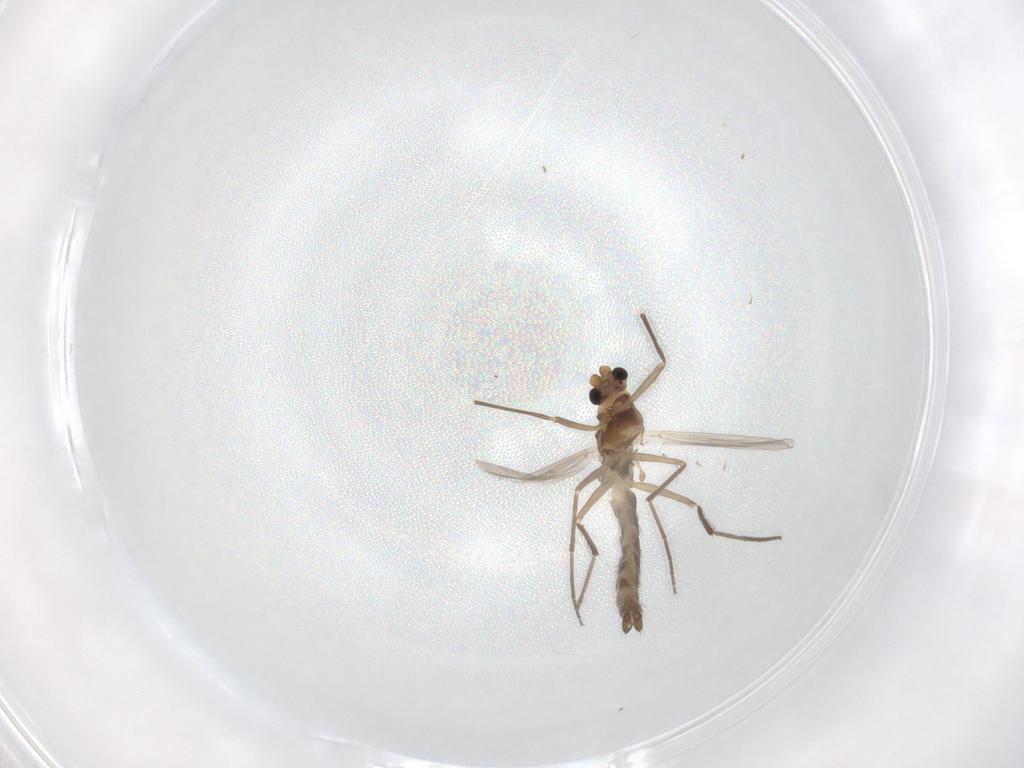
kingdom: Animalia
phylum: Arthropoda
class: Insecta
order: Diptera
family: Chironomidae
